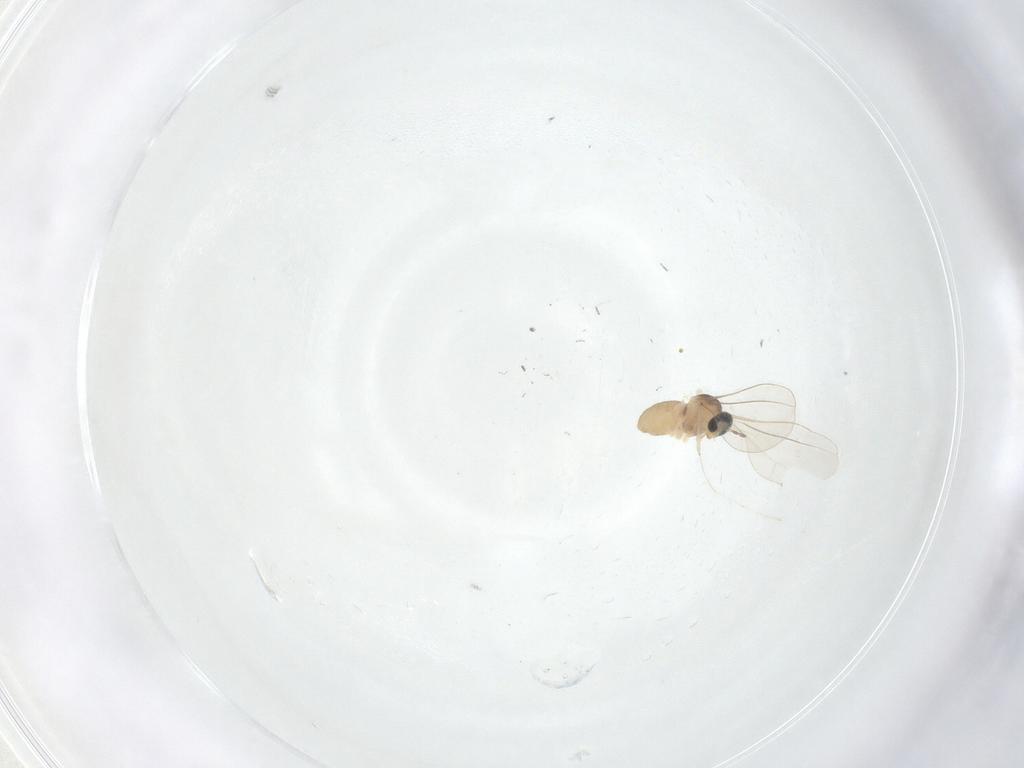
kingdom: Animalia
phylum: Arthropoda
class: Insecta
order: Diptera
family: Cecidomyiidae
